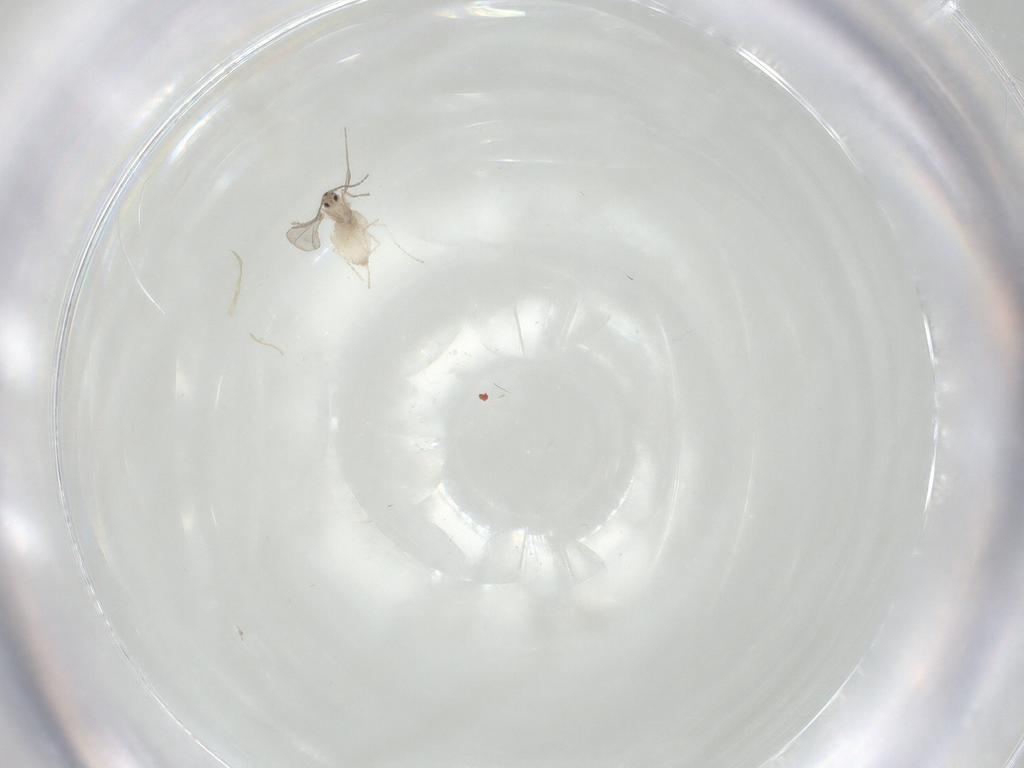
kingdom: Animalia
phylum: Arthropoda
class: Insecta
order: Diptera
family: Cecidomyiidae
